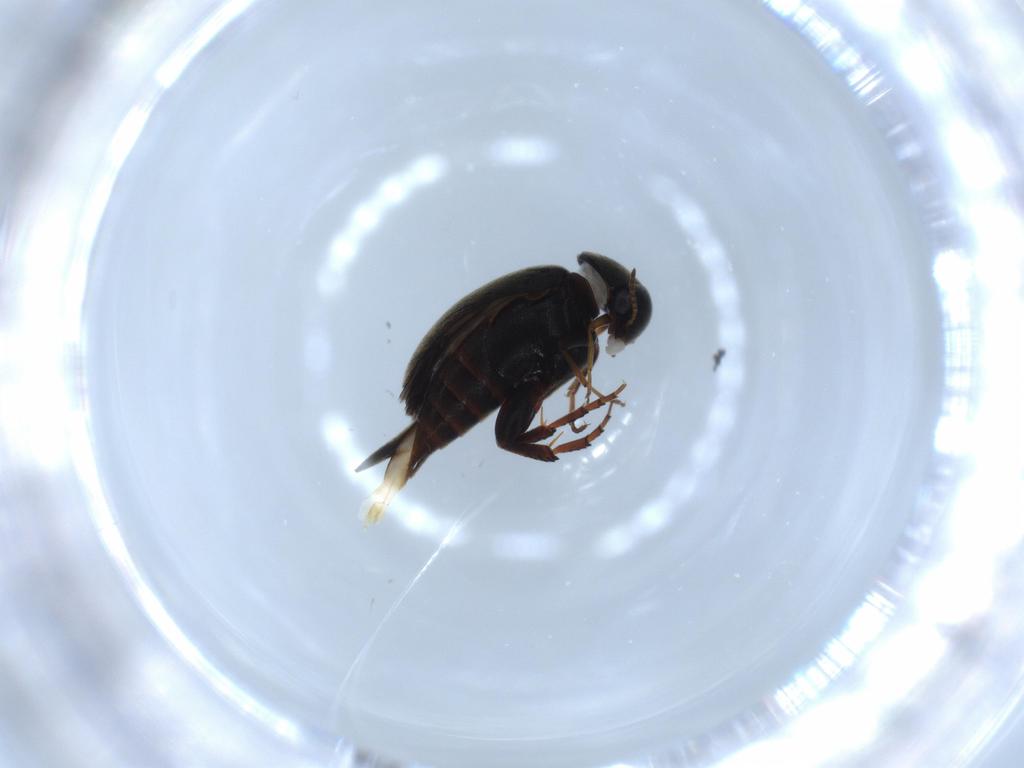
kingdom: Animalia
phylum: Arthropoda
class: Insecta
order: Coleoptera
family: Mordellidae
